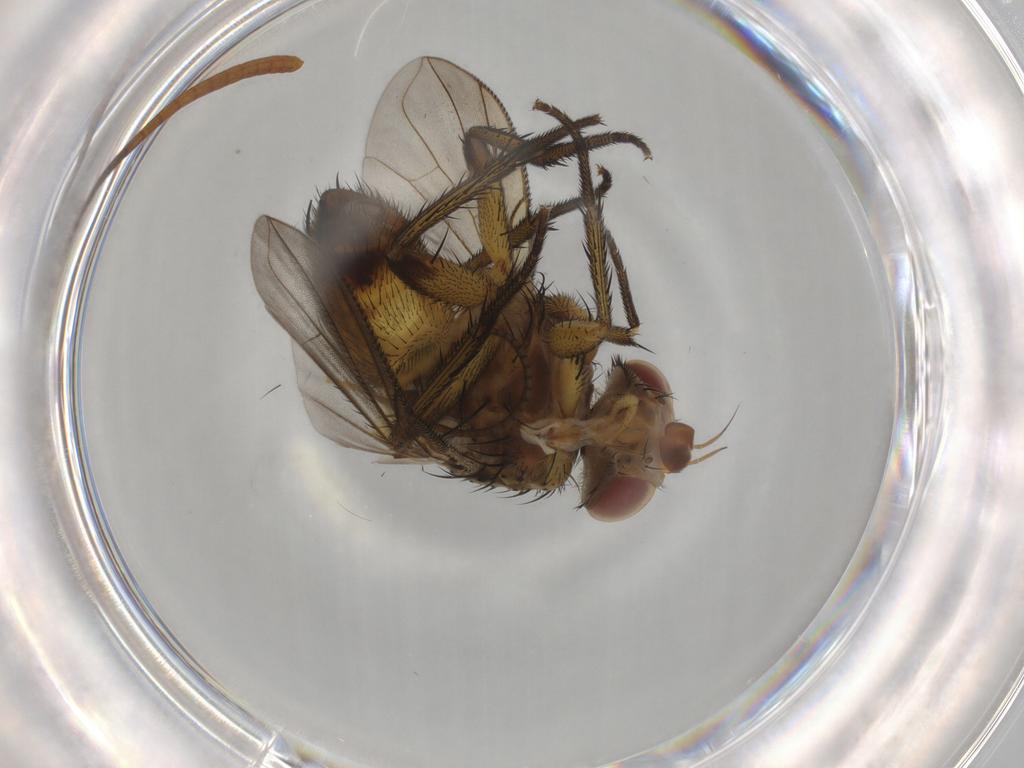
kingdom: Animalia
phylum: Arthropoda
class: Insecta
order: Diptera
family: Tachinidae
